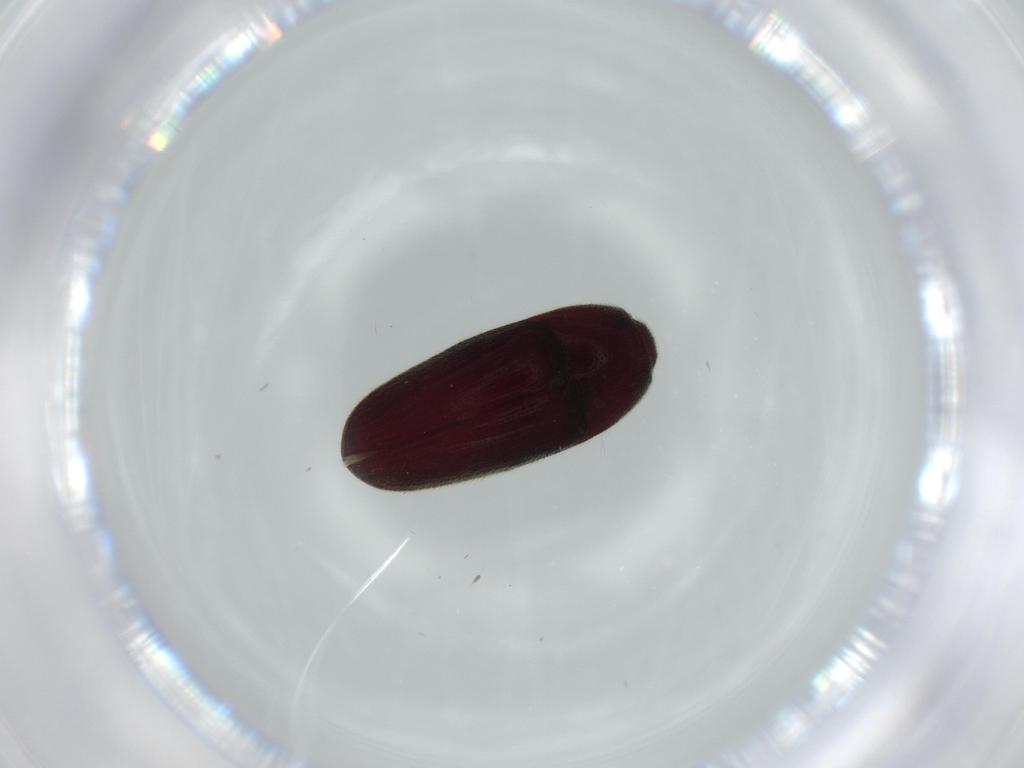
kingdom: Animalia
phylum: Arthropoda
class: Insecta
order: Coleoptera
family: Throscidae
